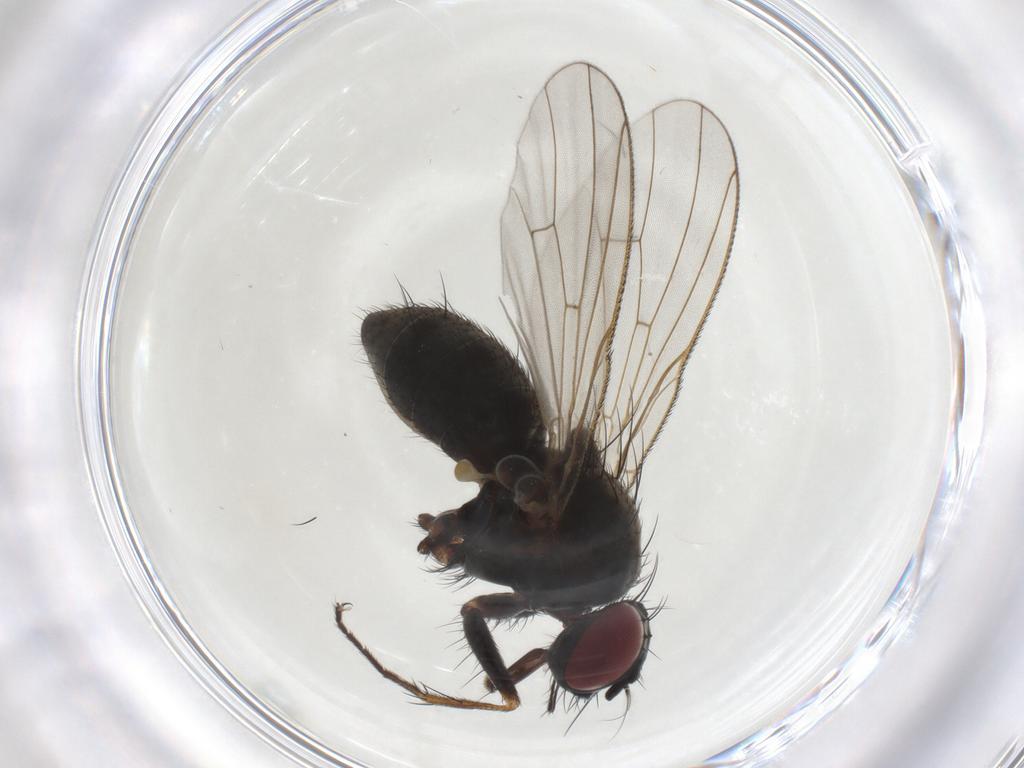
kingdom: Animalia
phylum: Arthropoda
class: Insecta
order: Diptera
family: Muscidae
